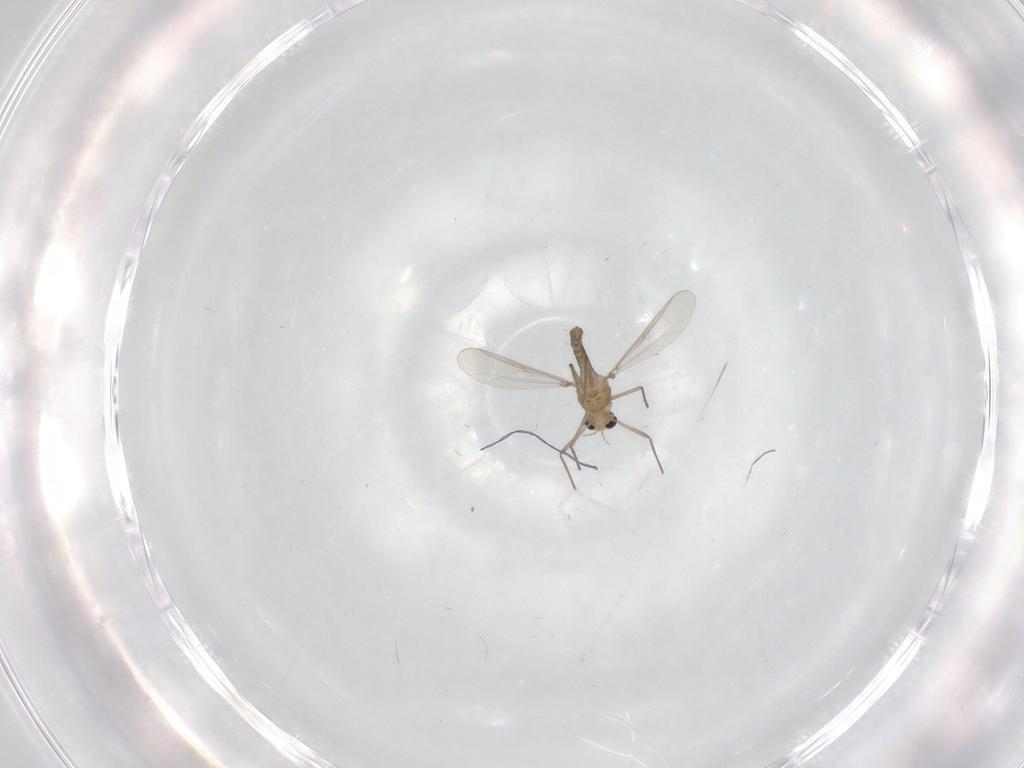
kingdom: Animalia
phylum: Arthropoda
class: Insecta
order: Diptera
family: Chironomidae
